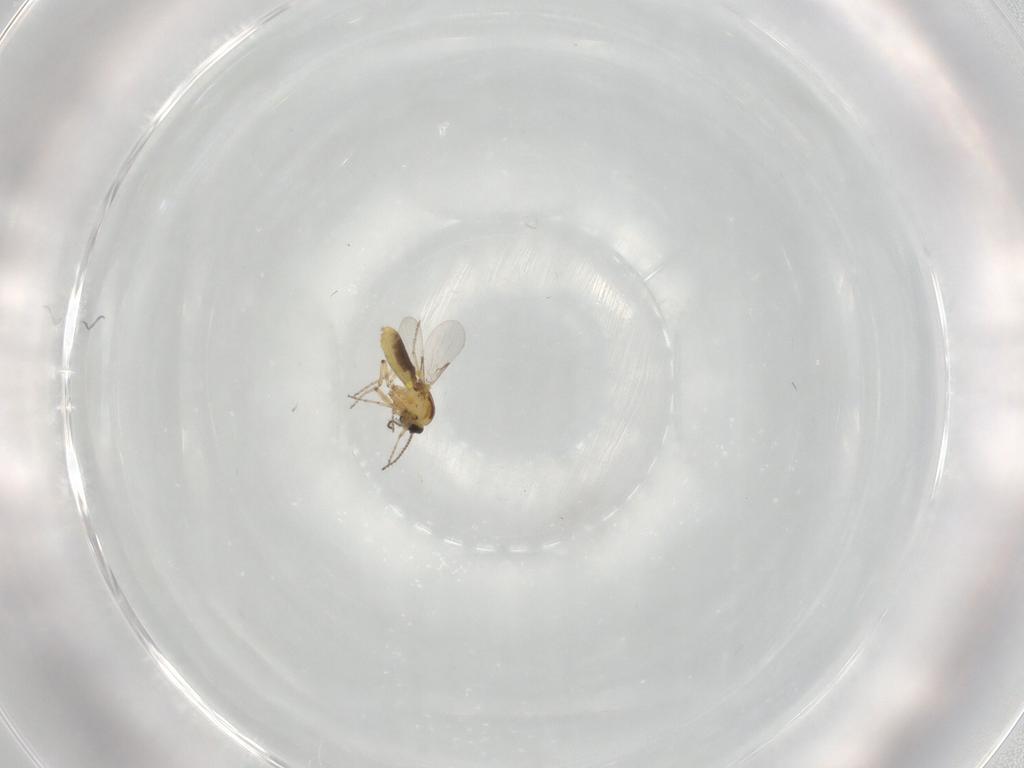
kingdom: Animalia
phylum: Arthropoda
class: Insecta
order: Diptera
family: Ceratopogonidae
